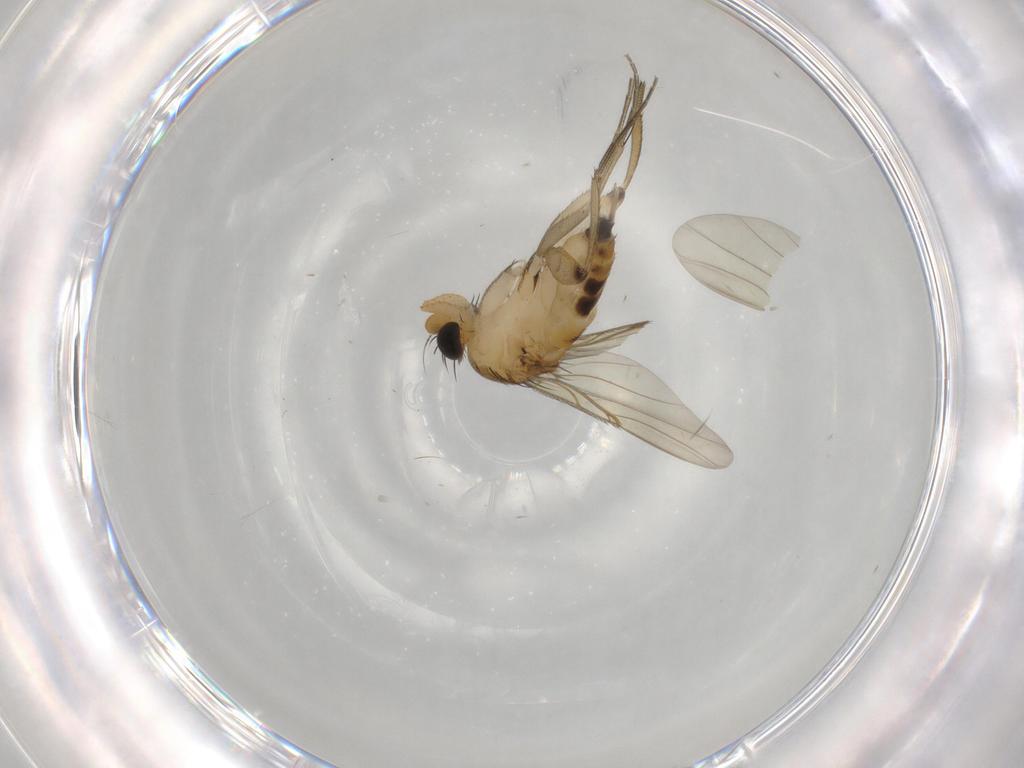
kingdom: Animalia
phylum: Arthropoda
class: Insecta
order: Diptera
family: Phoridae
